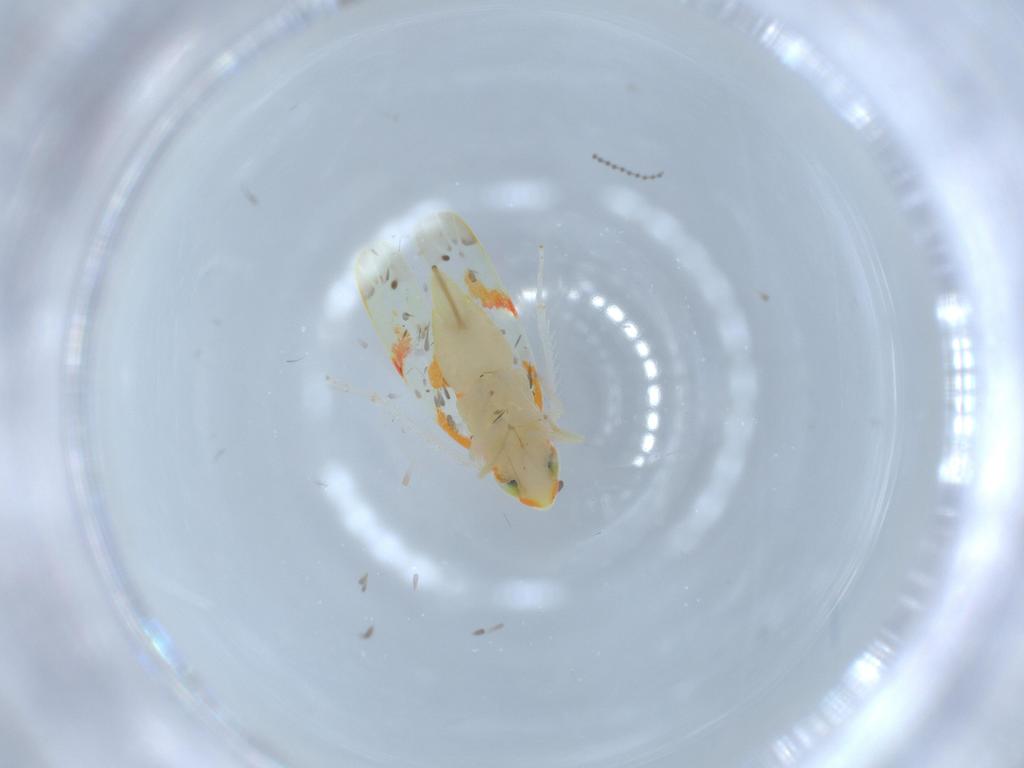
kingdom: Animalia
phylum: Arthropoda
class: Insecta
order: Hemiptera
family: Cicadellidae
